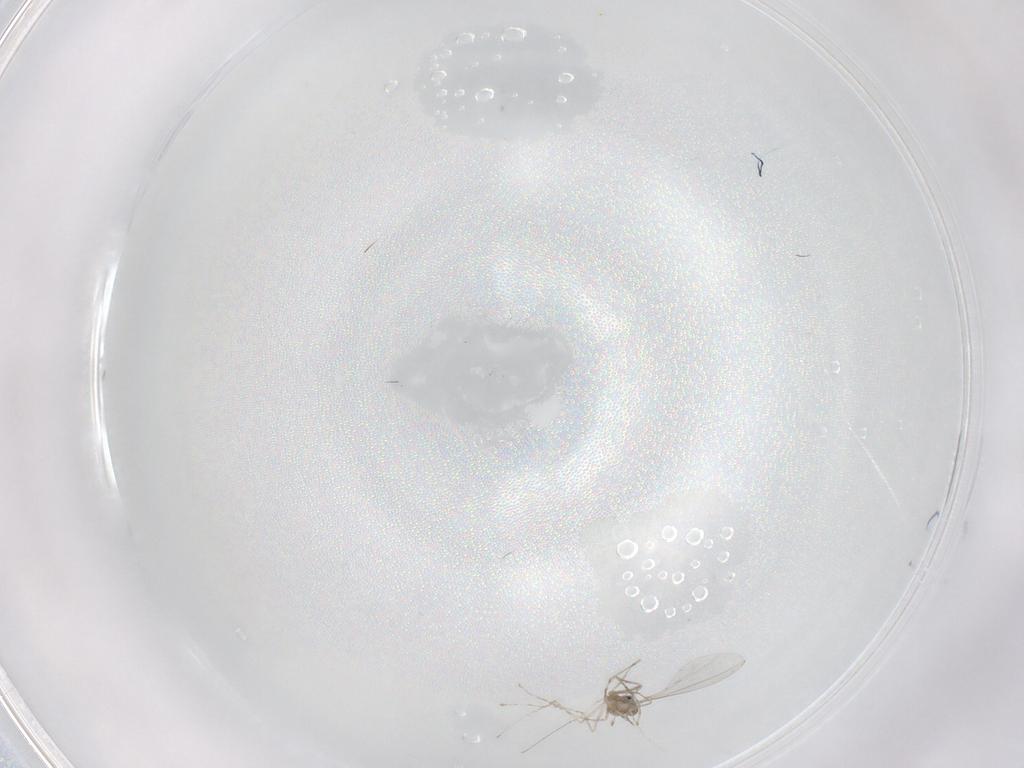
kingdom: Animalia
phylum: Arthropoda
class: Insecta
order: Diptera
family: Cecidomyiidae
